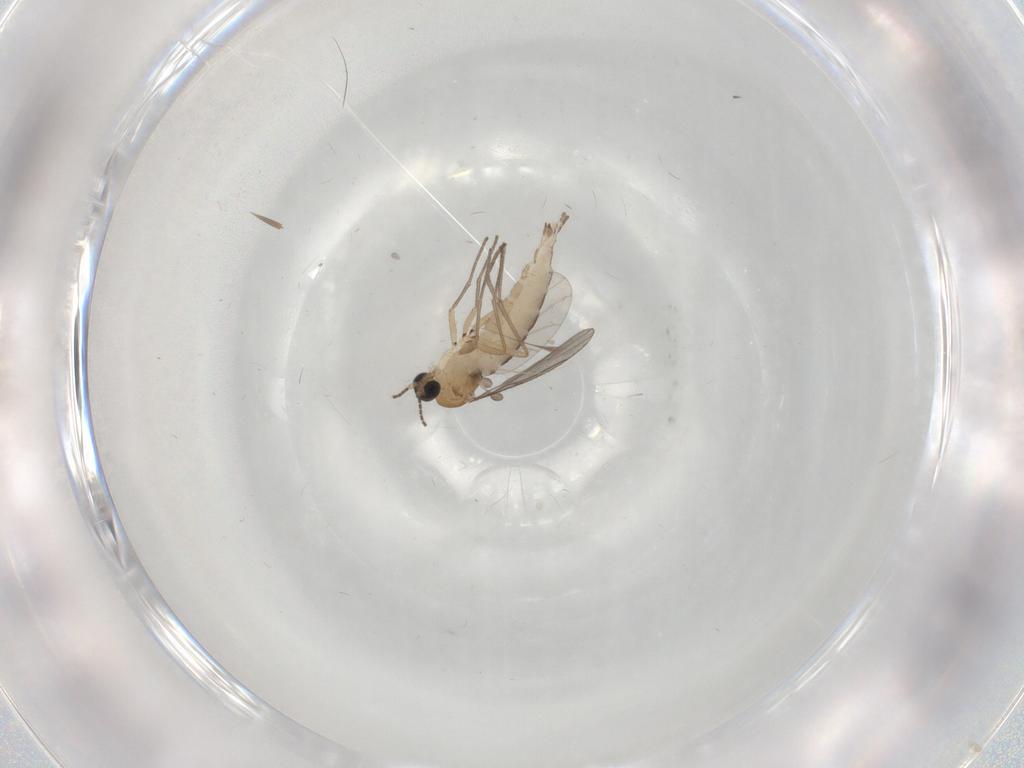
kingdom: Animalia
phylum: Arthropoda
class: Insecta
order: Diptera
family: Sciaridae
